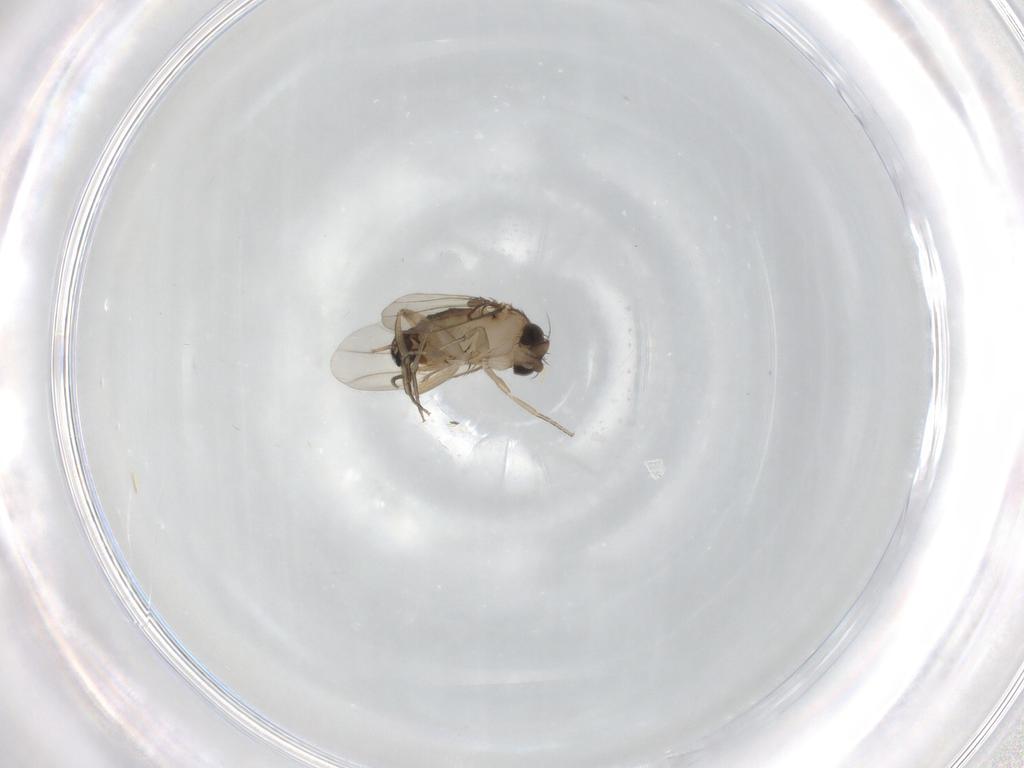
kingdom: Animalia
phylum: Arthropoda
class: Insecta
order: Diptera
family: Phoridae
